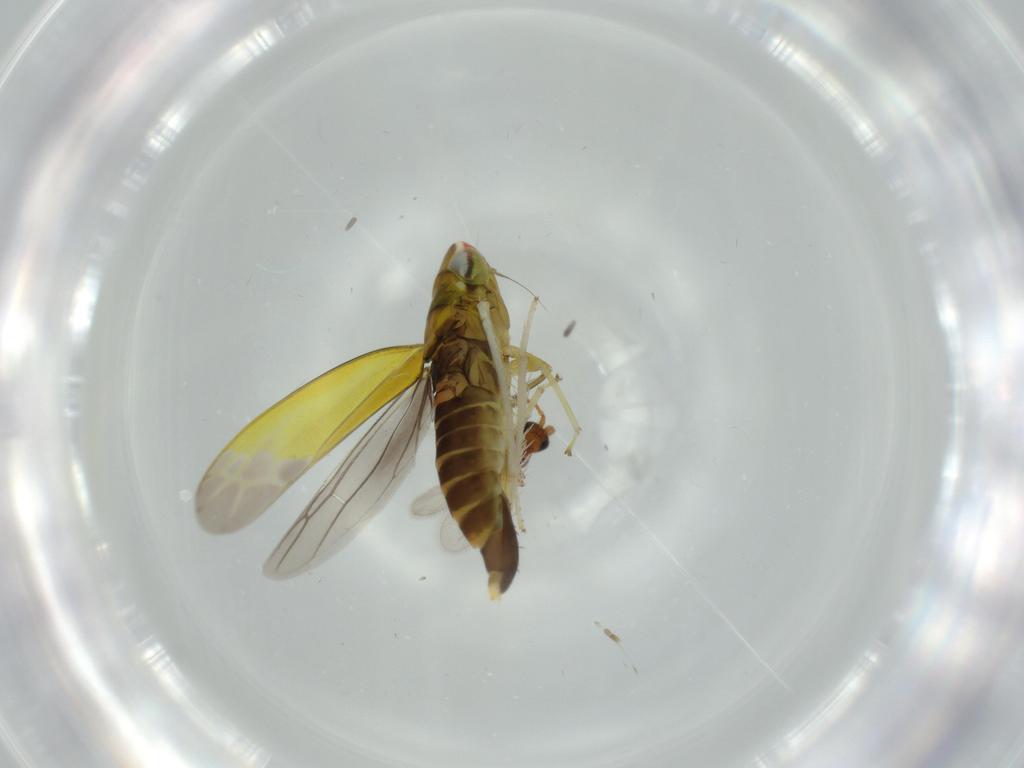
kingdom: Animalia
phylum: Arthropoda
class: Insecta
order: Hemiptera
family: Cicadellidae
